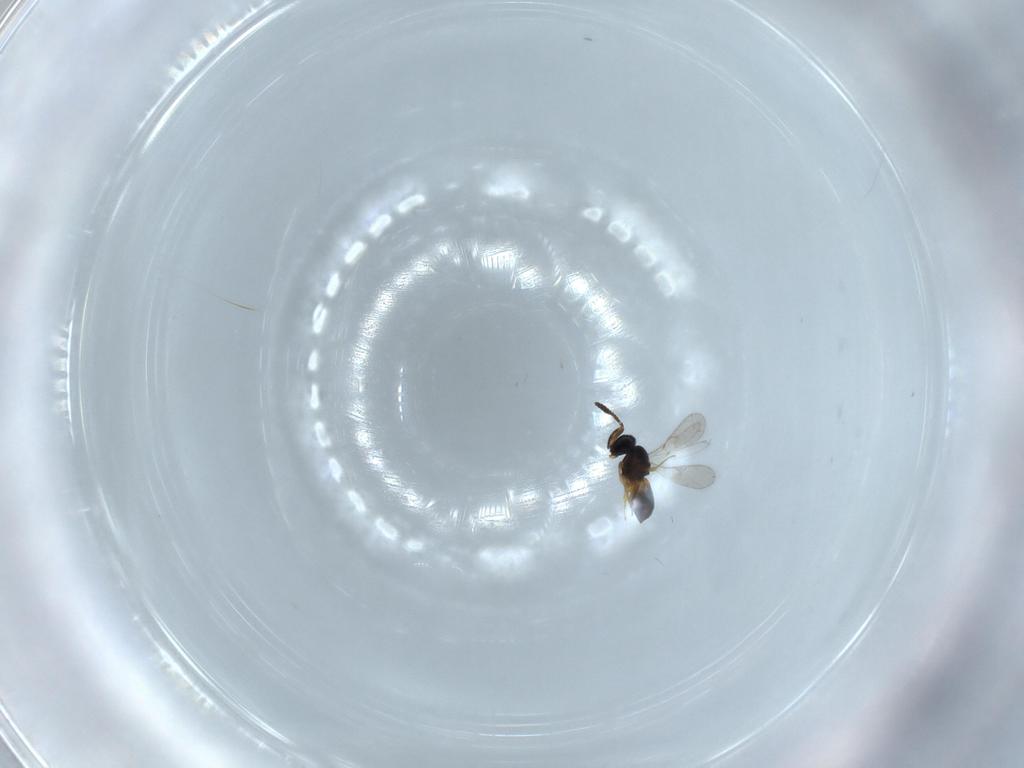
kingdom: Animalia
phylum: Arthropoda
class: Insecta
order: Hymenoptera
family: Scelionidae
